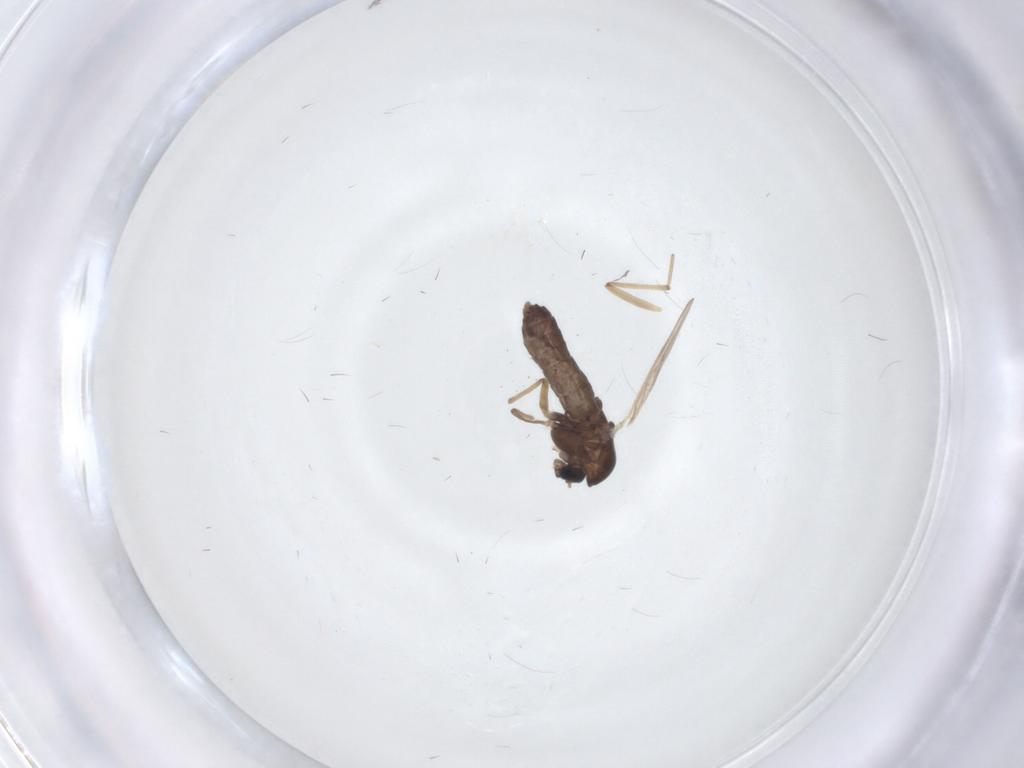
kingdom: Animalia
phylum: Arthropoda
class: Insecta
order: Diptera
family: Chironomidae
